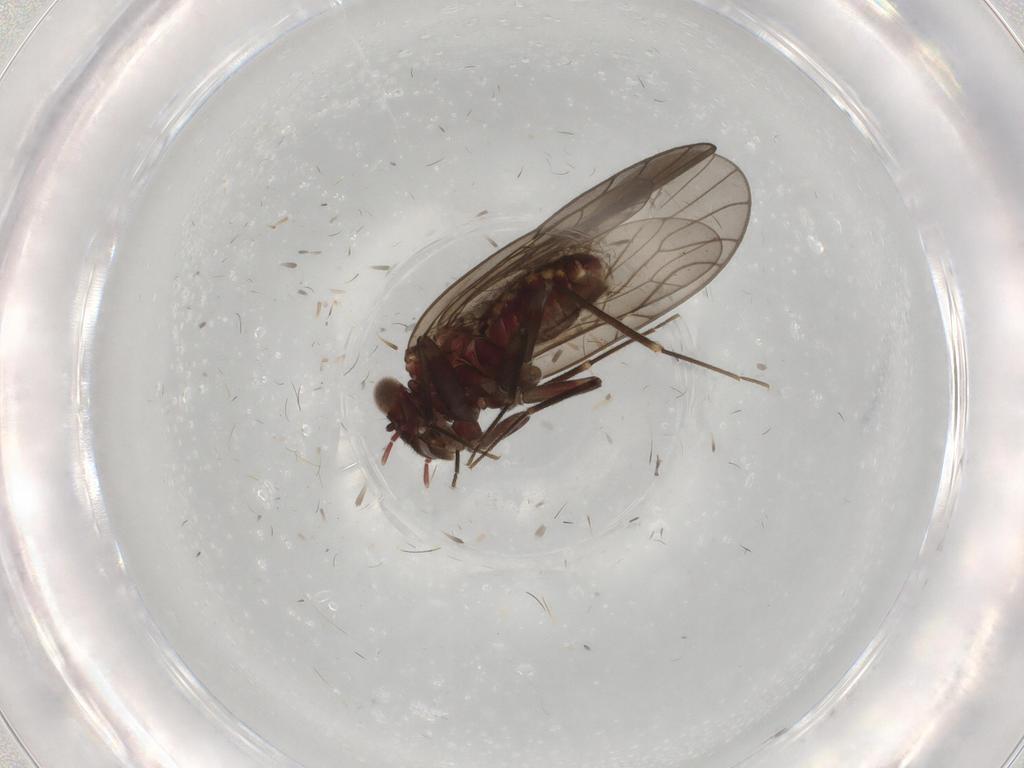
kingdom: Animalia
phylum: Arthropoda
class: Insecta
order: Psocodea
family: Philotarsidae
